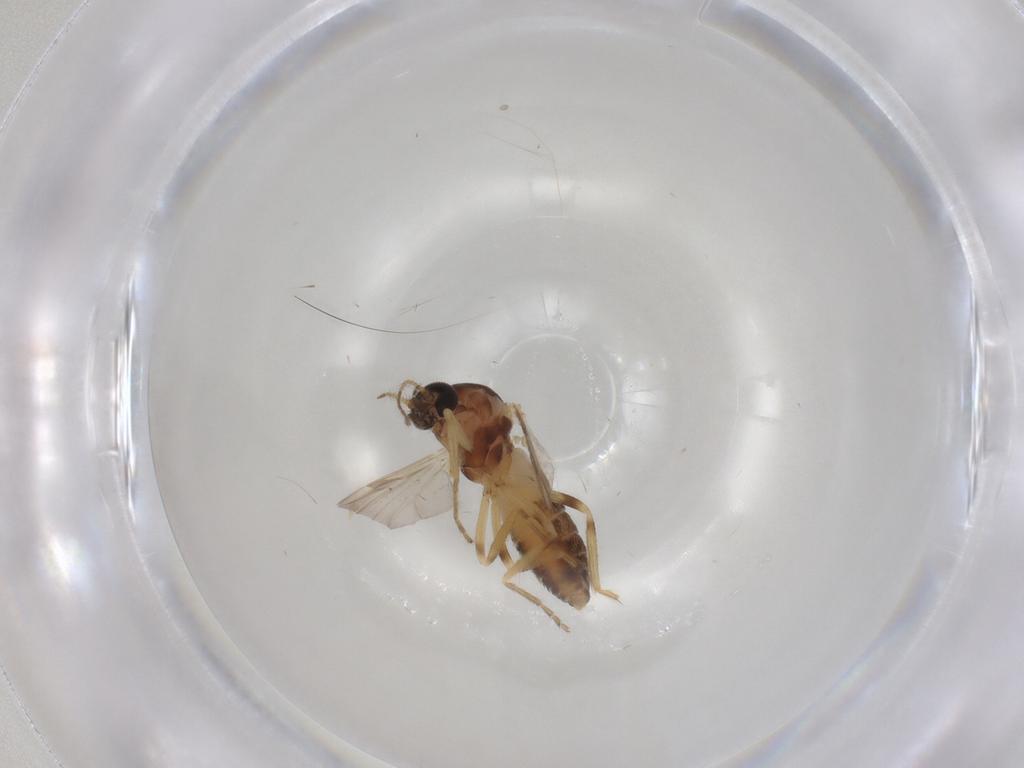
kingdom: Animalia
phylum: Arthropoda
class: Insecta
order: Diptera
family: Ceratopogonidae
